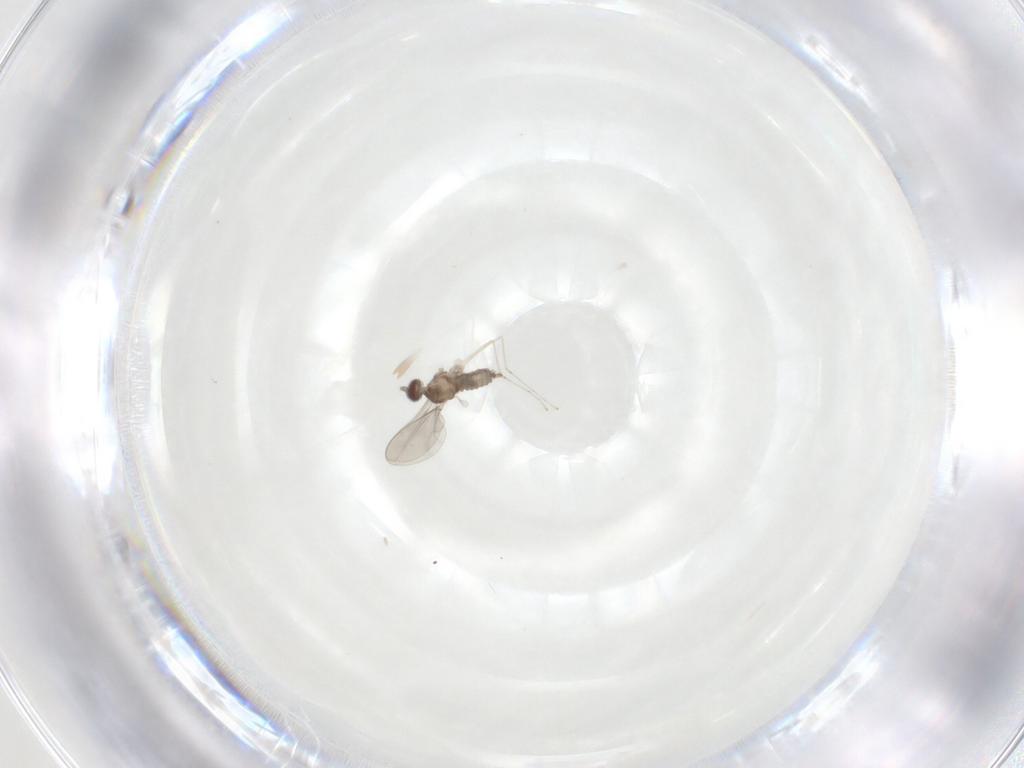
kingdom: Animalia
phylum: Arthropoda
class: Insecta
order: Diptera
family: Cecidomyiidae
